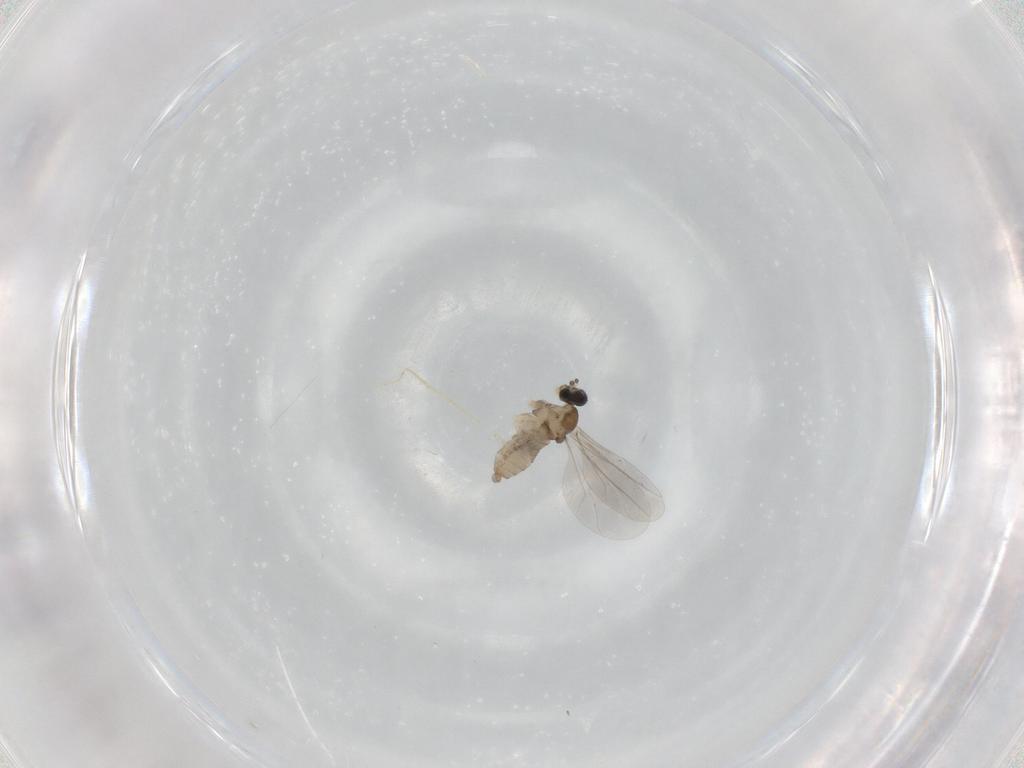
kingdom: Animalia
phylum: Arthropoda
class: Insecta
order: Diptera
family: Cecidomyiidae
